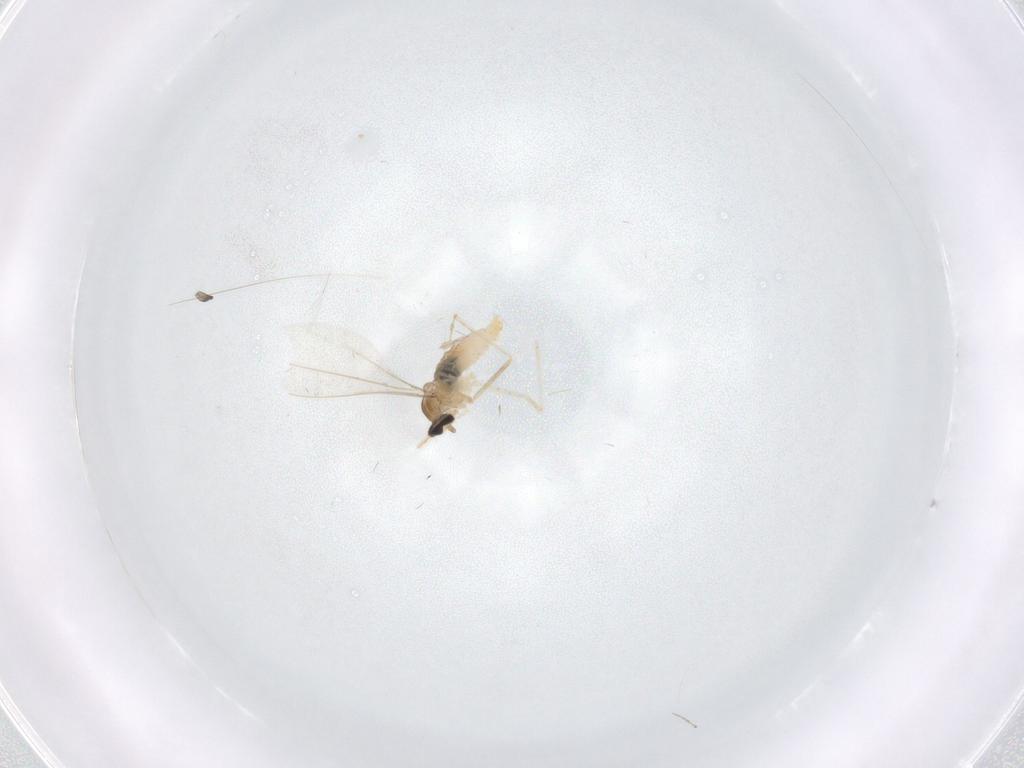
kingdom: Animalia
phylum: Arthropoda
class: Insecta
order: Diptera
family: Cecidomyiidae
